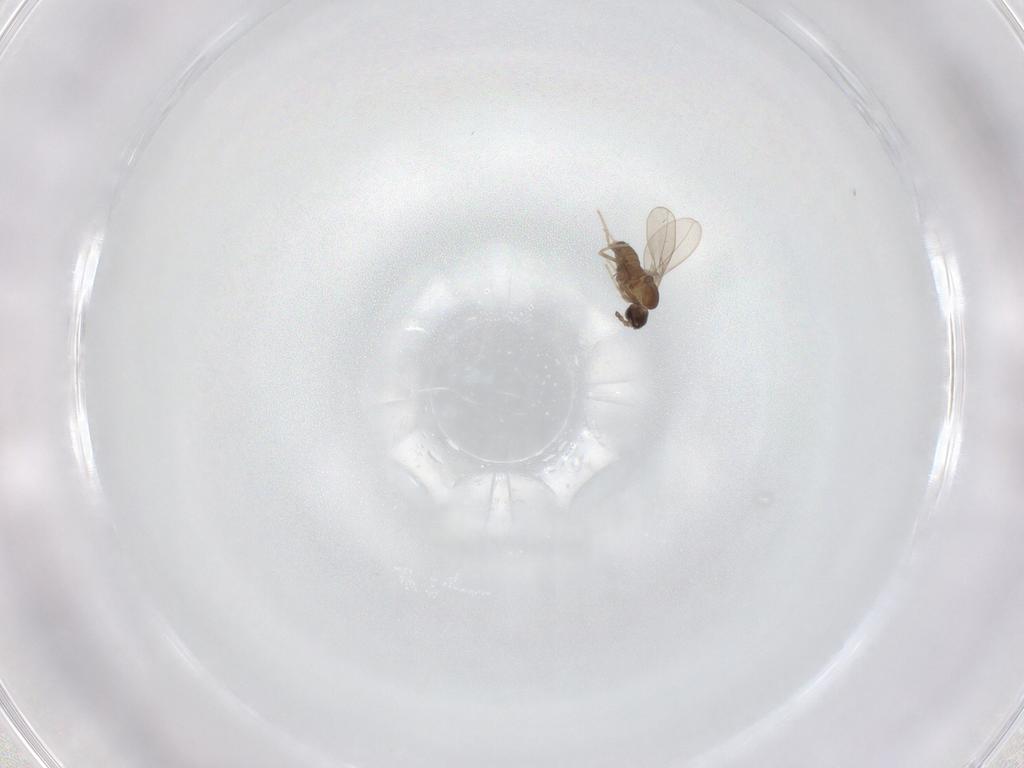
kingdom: Animalia
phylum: Arthropoda
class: Insecta
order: Diptera
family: Cecidomyiidae
